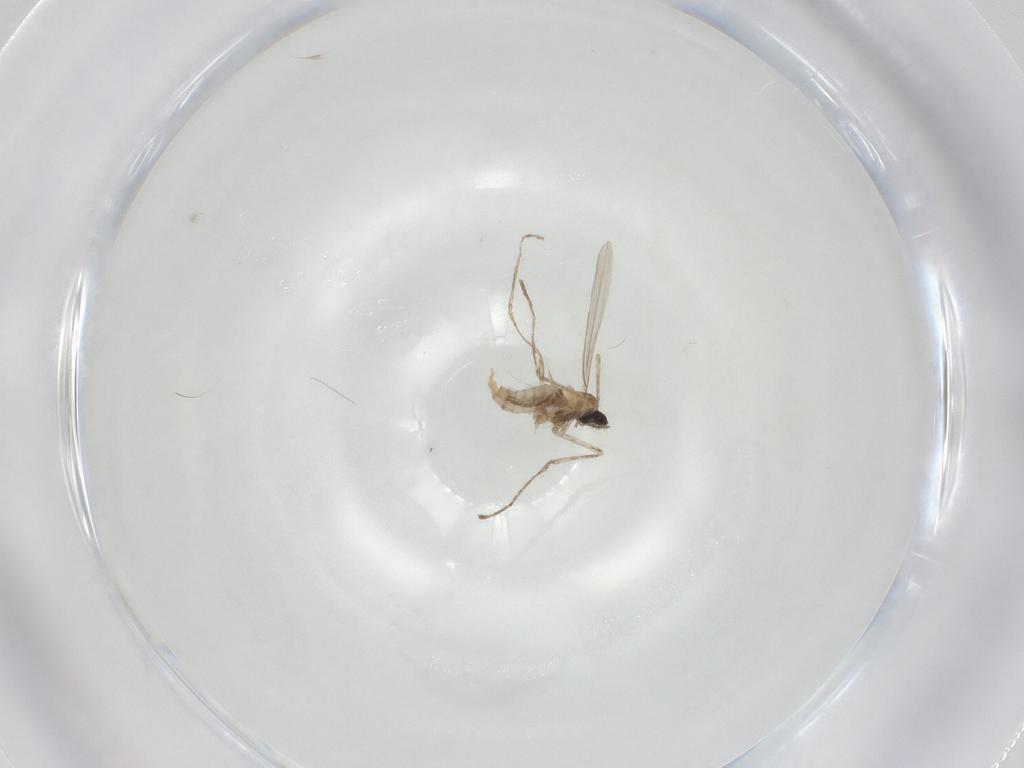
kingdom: Animalia
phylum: Arthropoda
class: Insecta
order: Diptera
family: Cecidomyiidae
